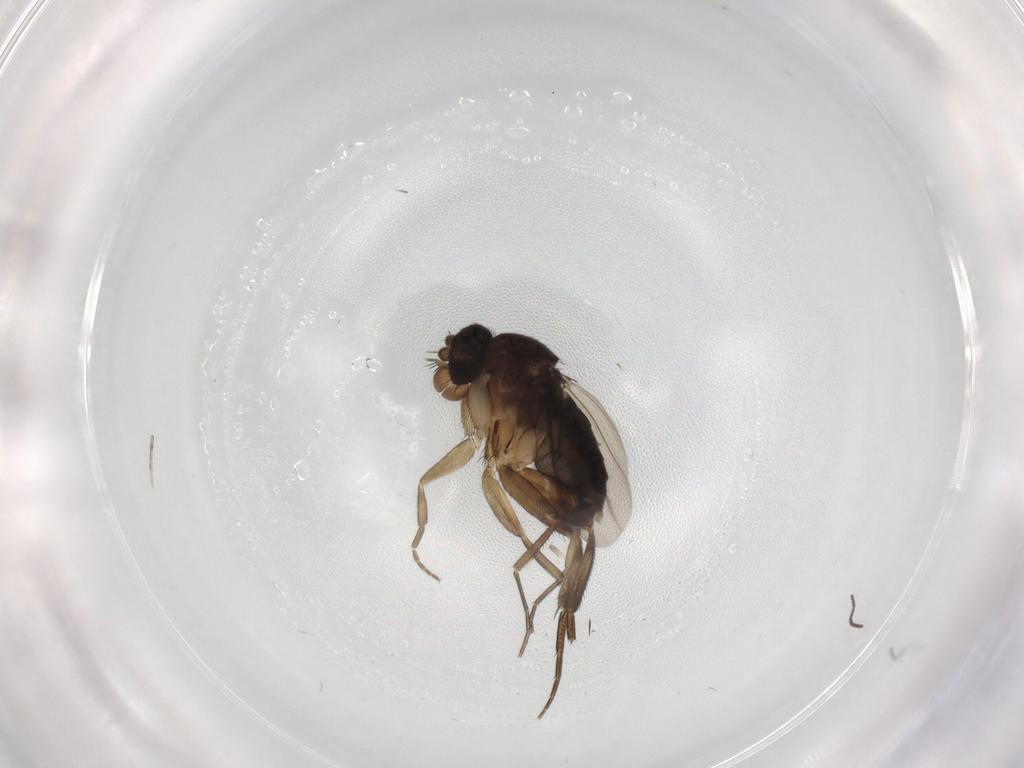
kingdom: Animalia
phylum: Arthropoda
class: Insecta
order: Diptera
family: Phoridae
